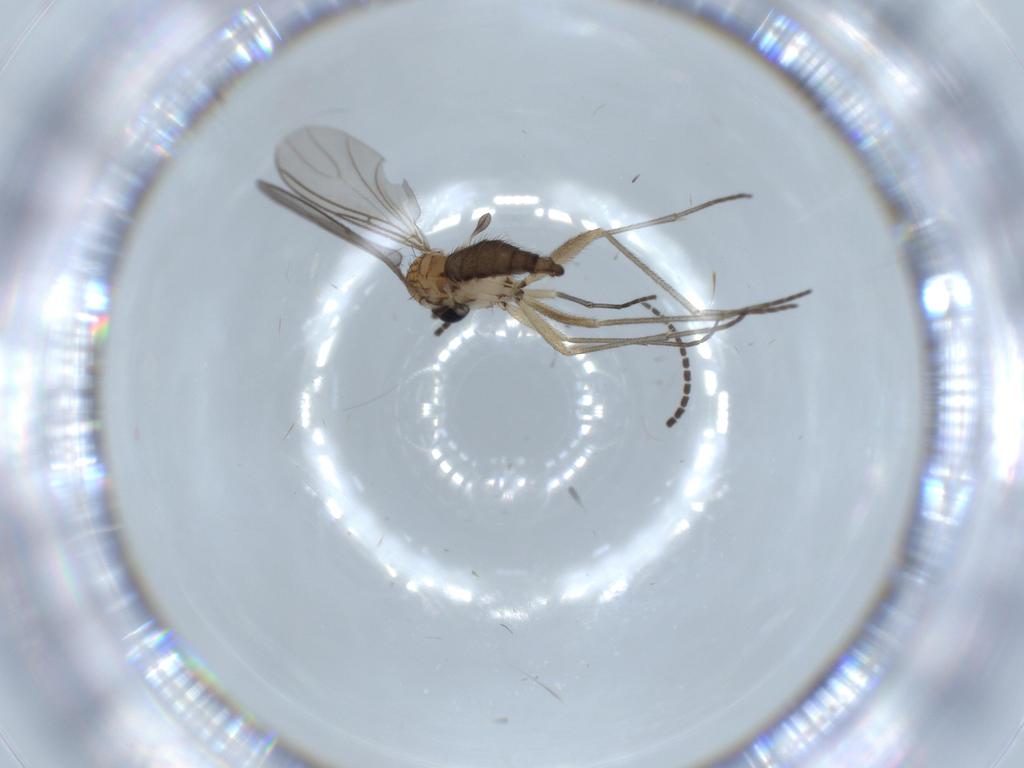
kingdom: Animalia
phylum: Arthropoda
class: Insecta
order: Diptera
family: Sciaridae
